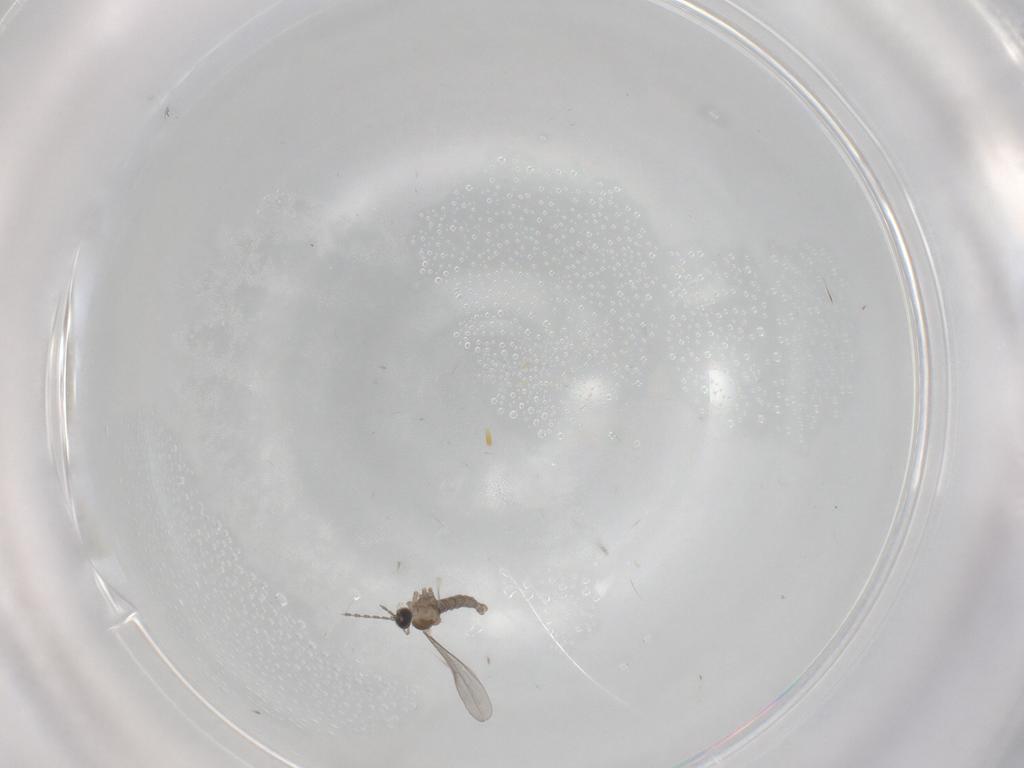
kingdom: Animalia
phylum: Arthropoda
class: Insecta
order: Diptera
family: Cecidomyiidae
